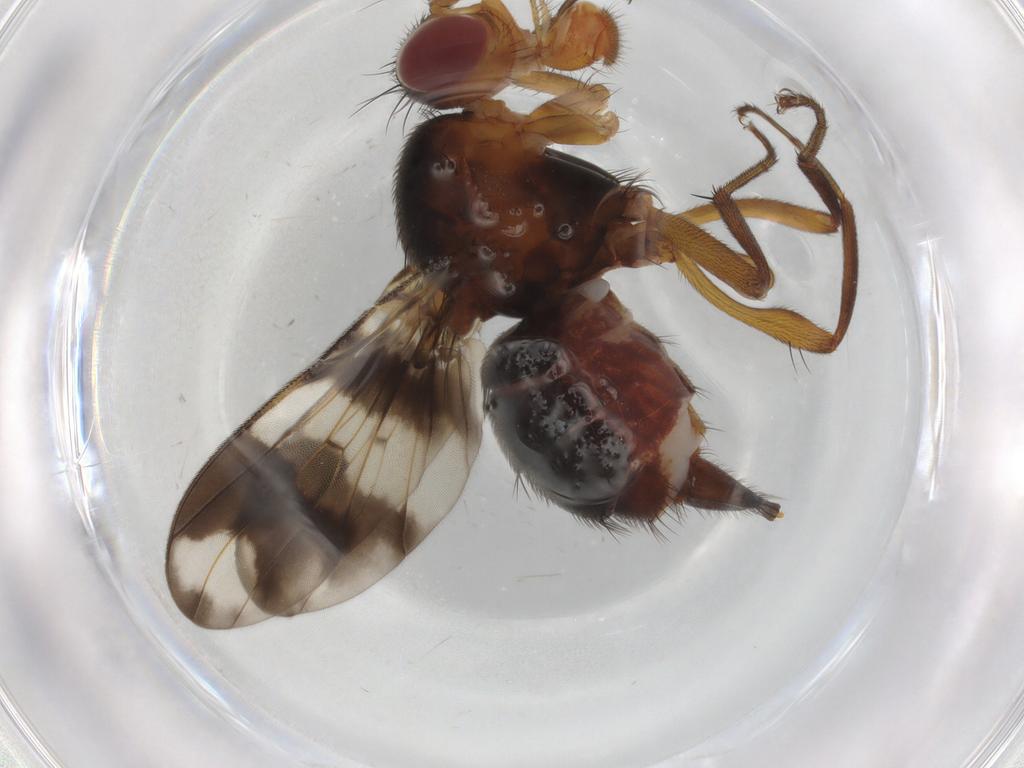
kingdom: Animalia
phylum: Arthropoda
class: Insecta
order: Diptera
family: Richardiidae
